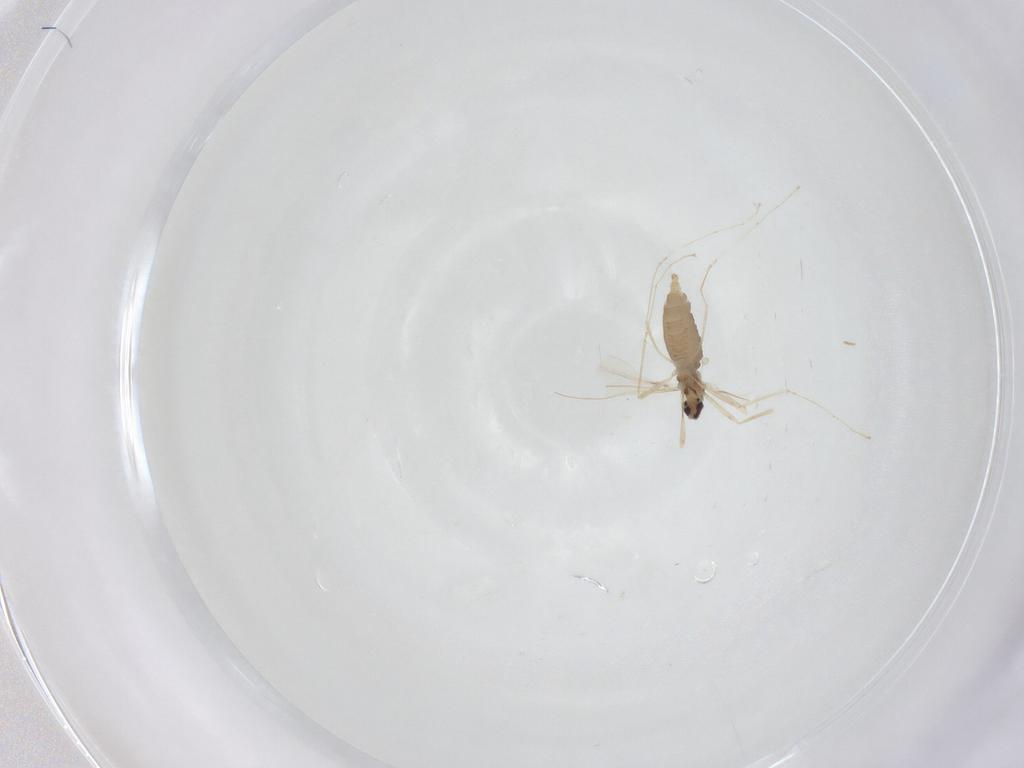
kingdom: Animalia
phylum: Arthropoda
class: Insecta
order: Diptera
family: Cecidomyiidae
